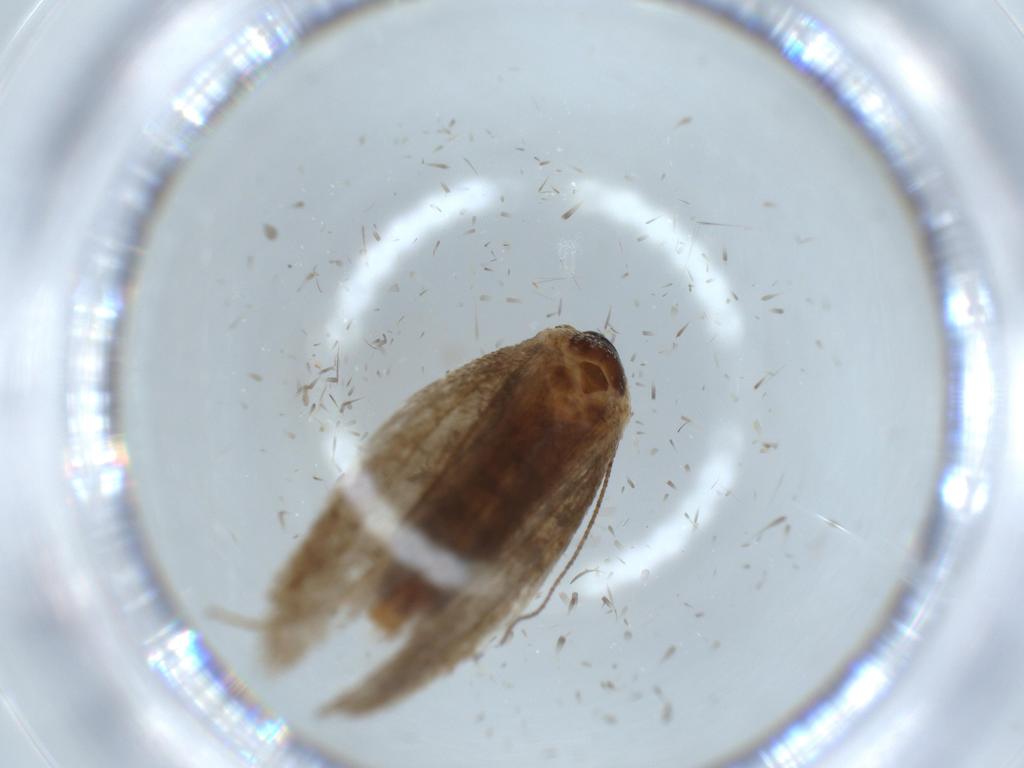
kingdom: Animalia
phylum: Arthropoda
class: Insecta
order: Lepidoptera
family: Oecophoridae
